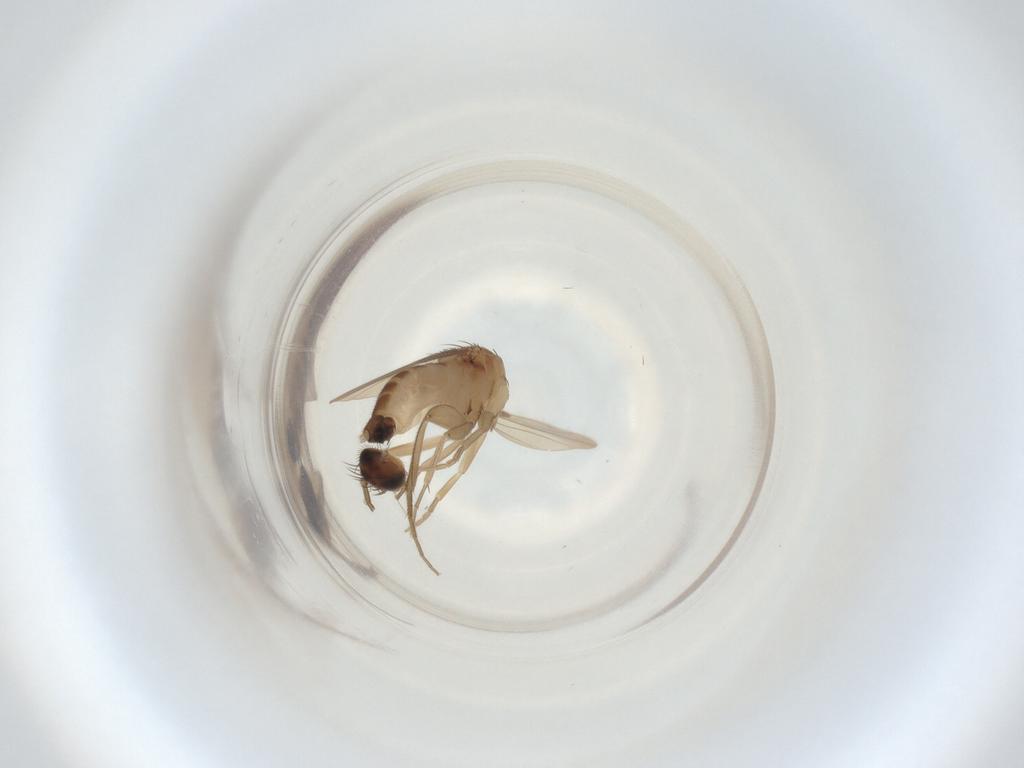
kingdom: Animalia
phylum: Arthropoda
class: Insecta
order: Diptera
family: Phoridae
